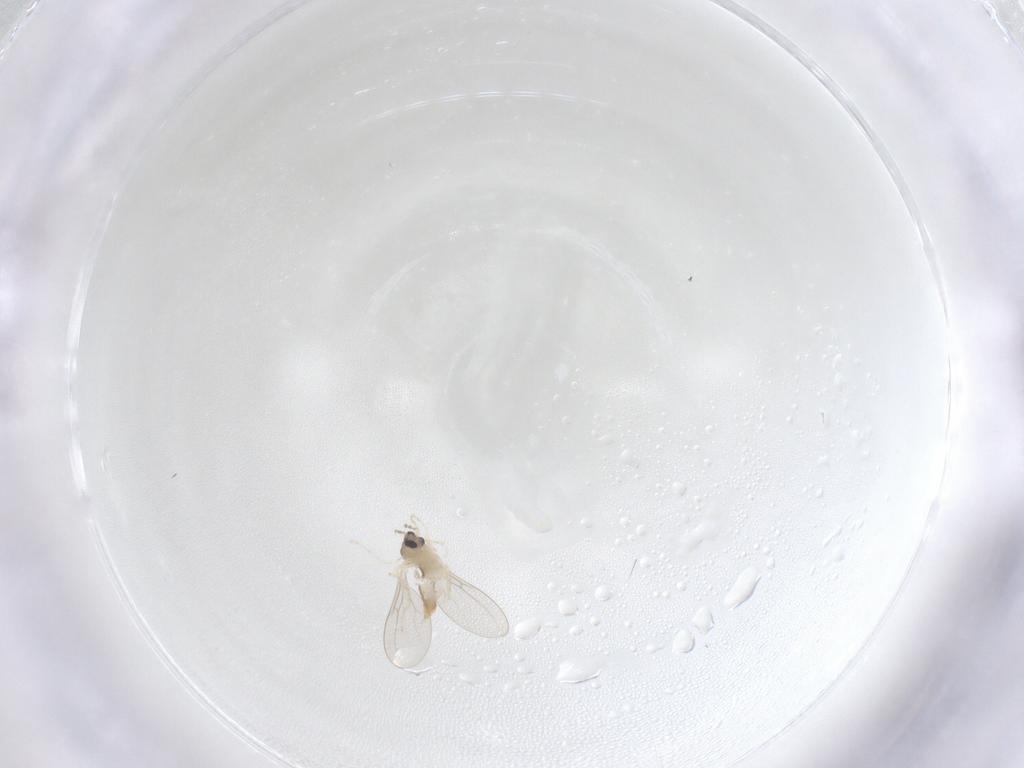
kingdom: Animalia
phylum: Arthropoda
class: Insecta
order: Diptera
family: Cecidomyiidae
